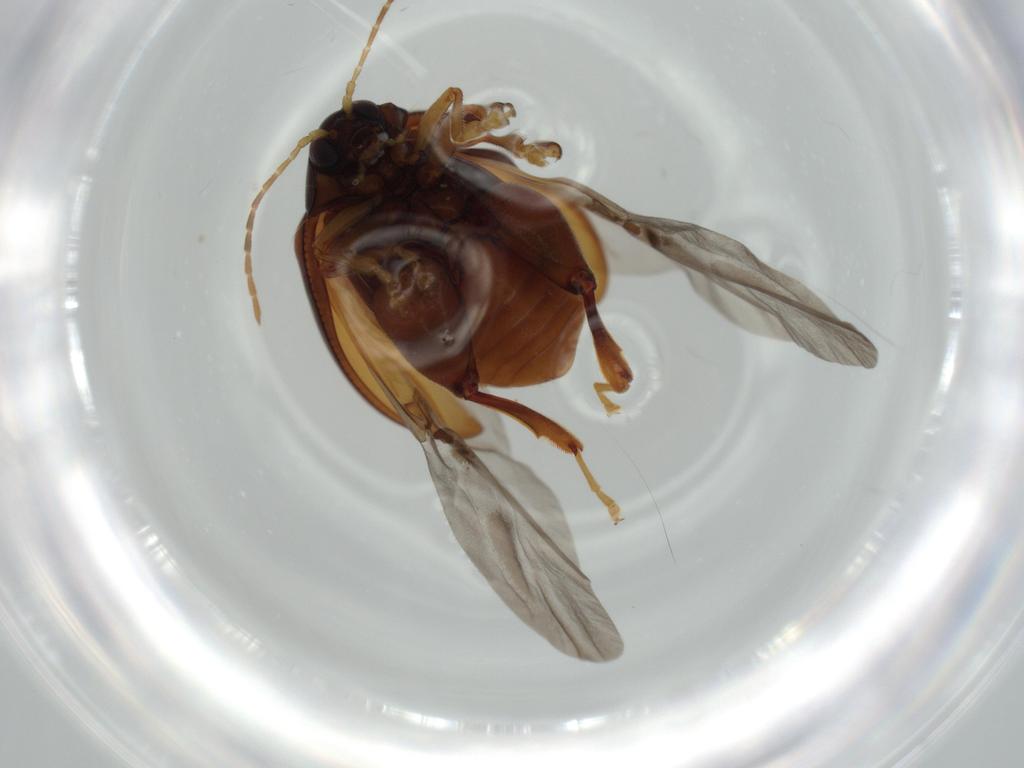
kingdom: Animalia
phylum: Arthropoda
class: Insecta
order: Coleoptera
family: Chrysomelidae
